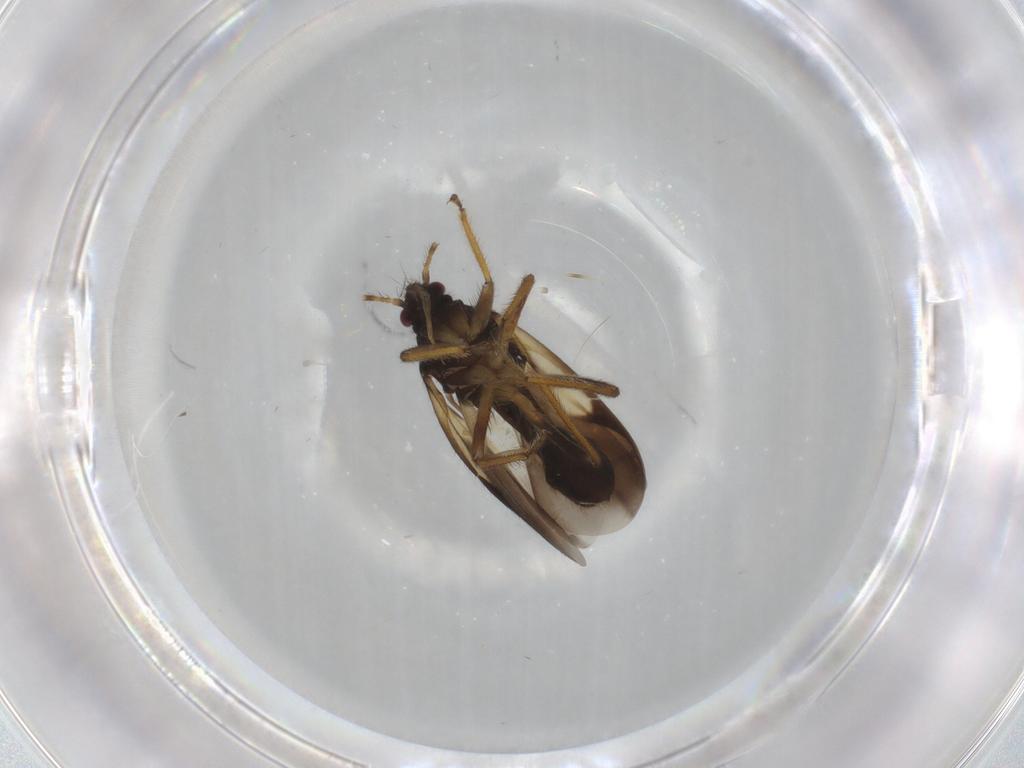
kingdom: Animalia
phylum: Arthropoda
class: Insecta
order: Hemiptera
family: Ceratocombidae
